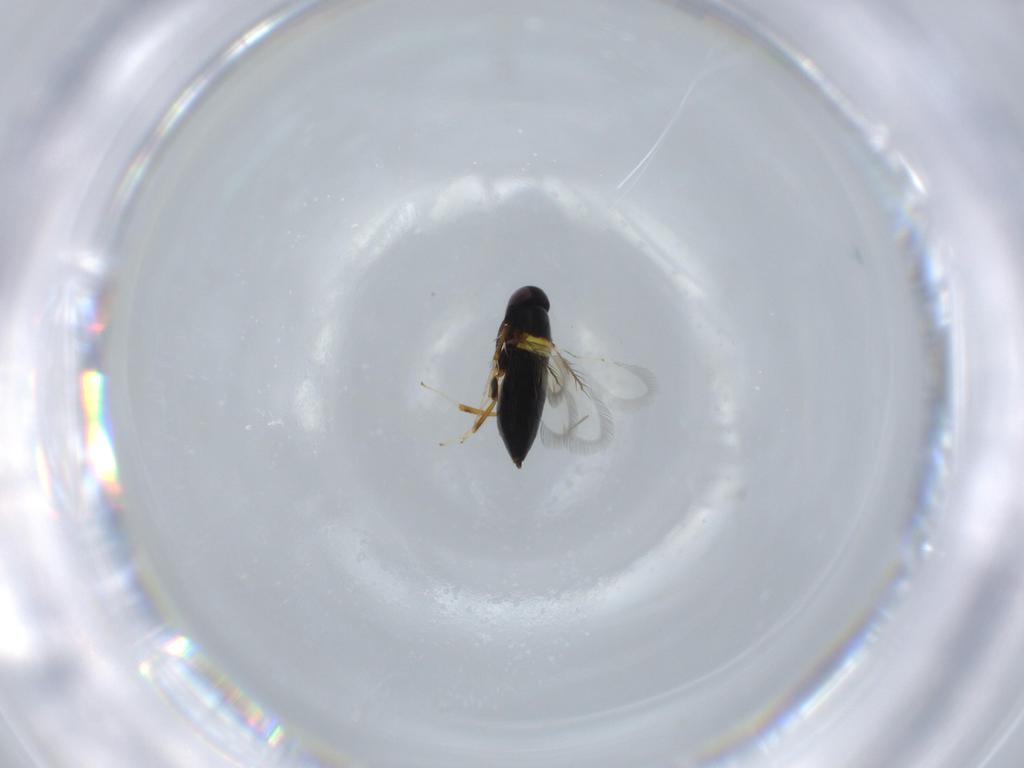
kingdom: Animalia
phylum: Arthropoda
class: Insecta
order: Hymenoptera
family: Signiphoridae
